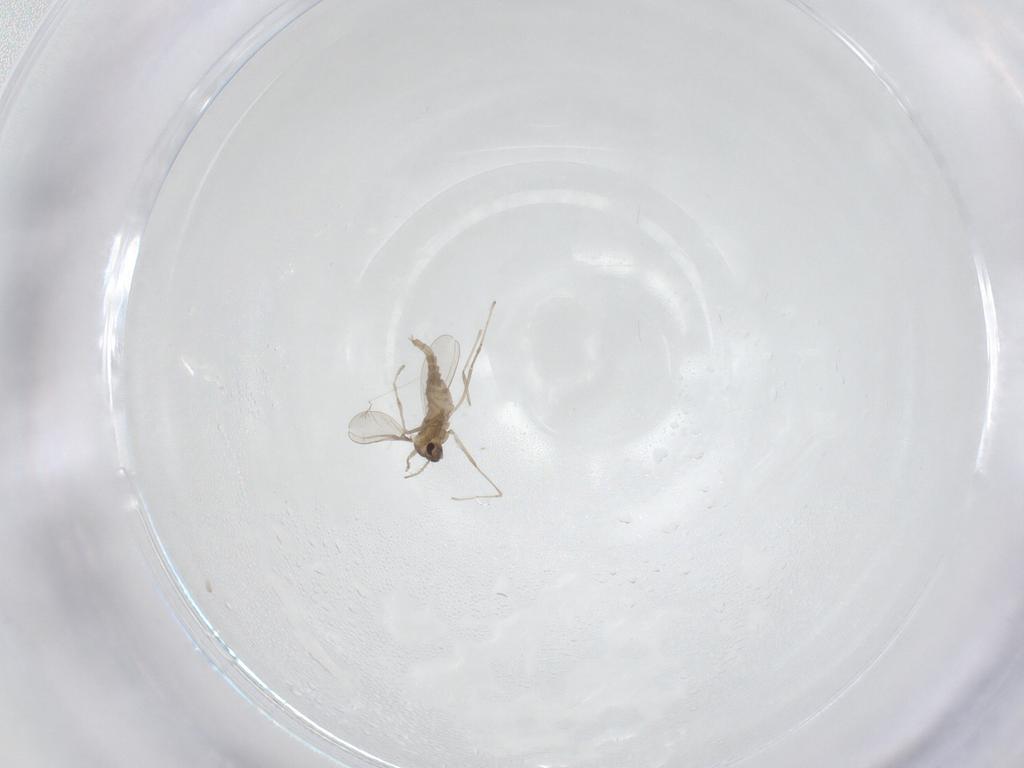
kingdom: Animalia
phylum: Arthropoda
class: Insecta
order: Diptera
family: Cecidomyiidae
